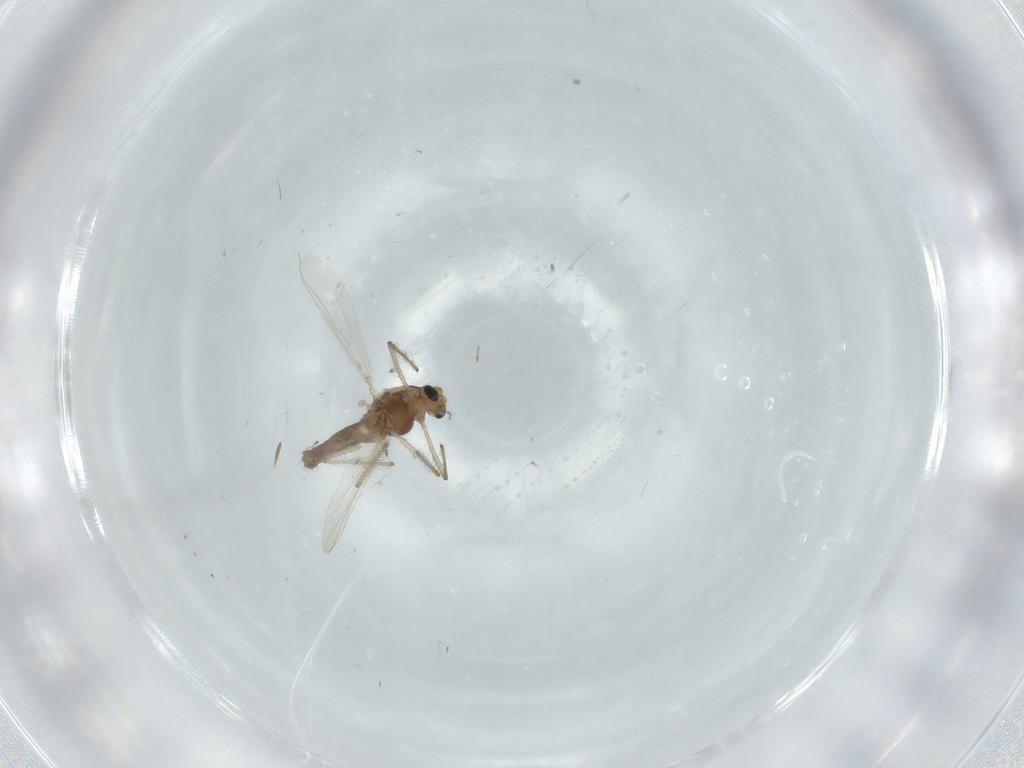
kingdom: Animalia
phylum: Arthropoda
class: Insecta
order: Diptera
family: Chironomidae
